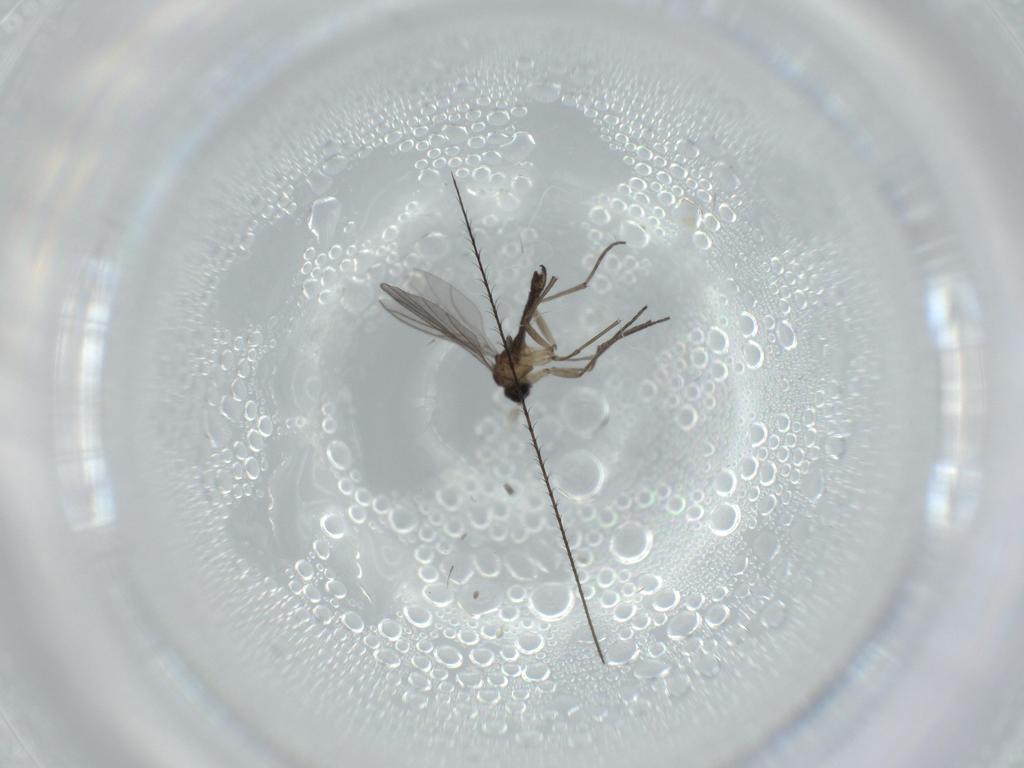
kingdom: Animalia
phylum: Arthropoda
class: Insecta
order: Diptera
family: Sciaridae
